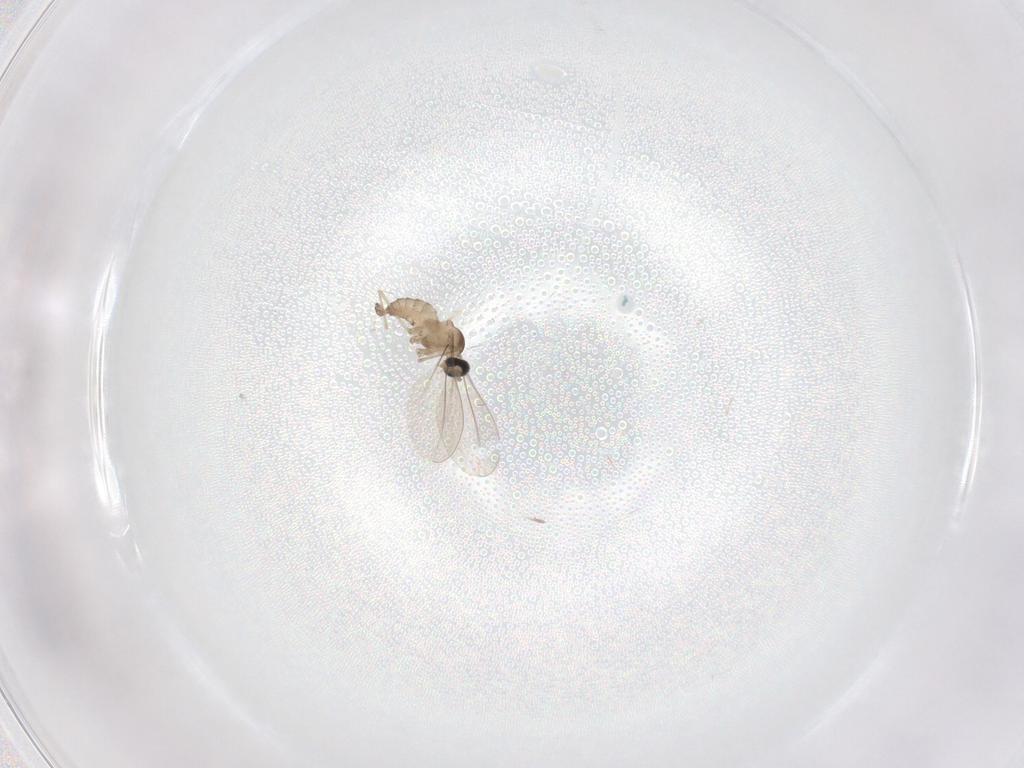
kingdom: Animalia
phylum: Arthropoda
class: Insecta
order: Diptera
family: Cecidomyiidae
